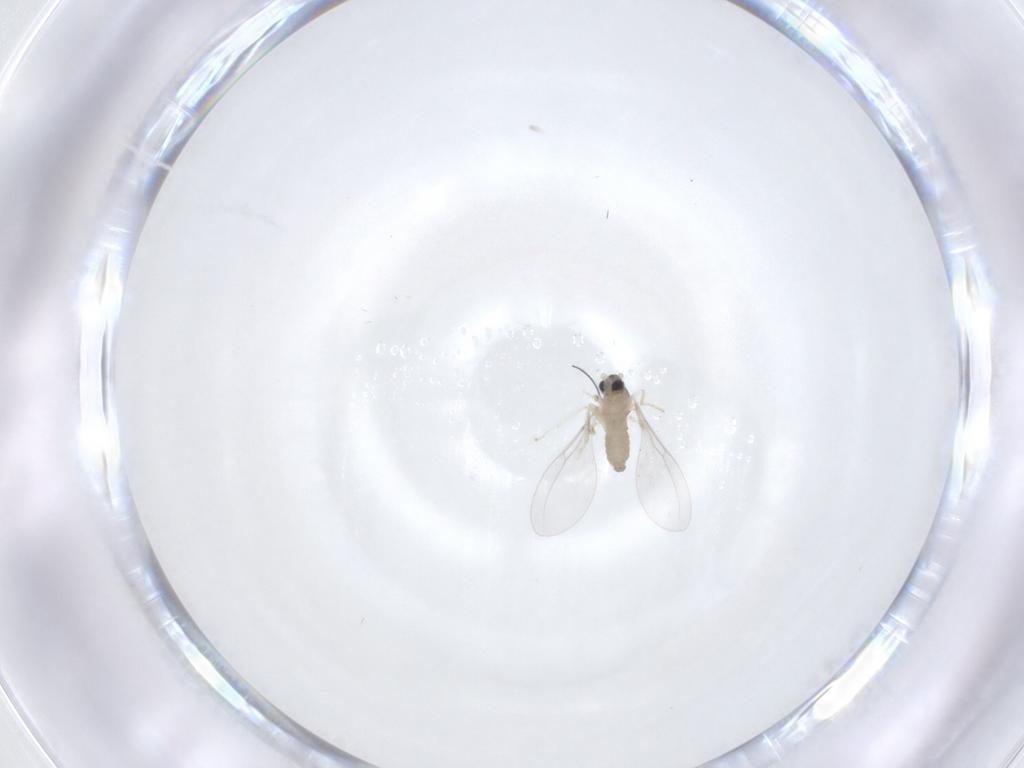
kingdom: Animalia
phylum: Arthropoda
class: Insecta
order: Diptera
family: Cecidomyiidae
